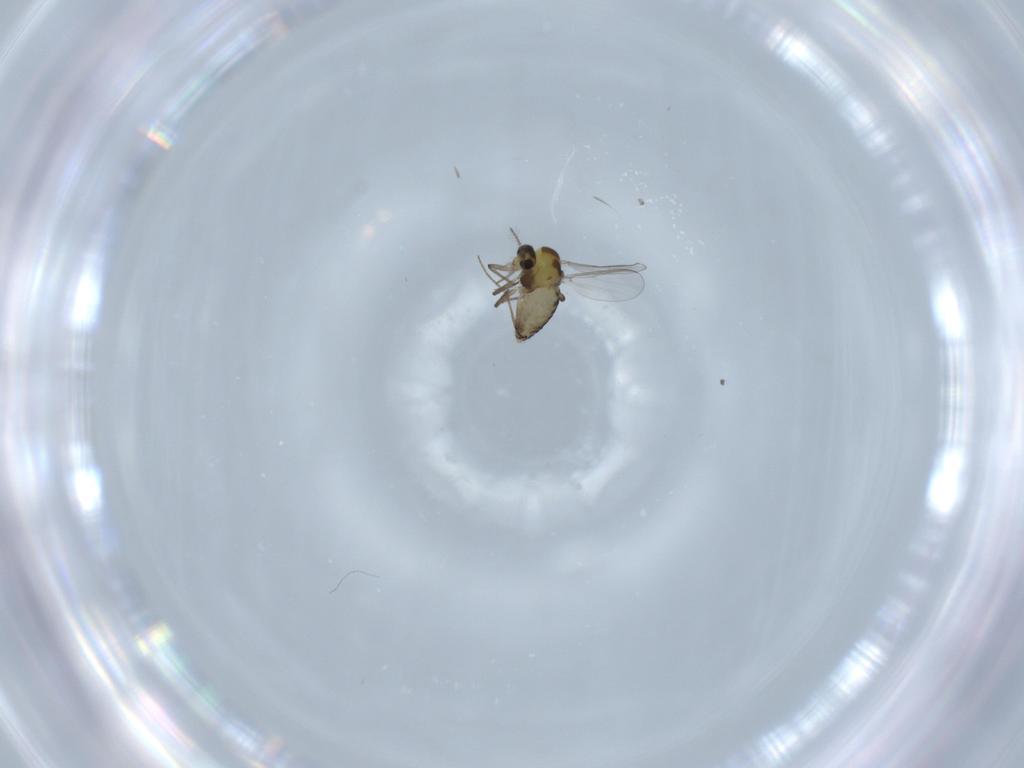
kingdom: Animalia
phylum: Arthropoda
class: Insecta
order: Diptera
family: Chironomidae
